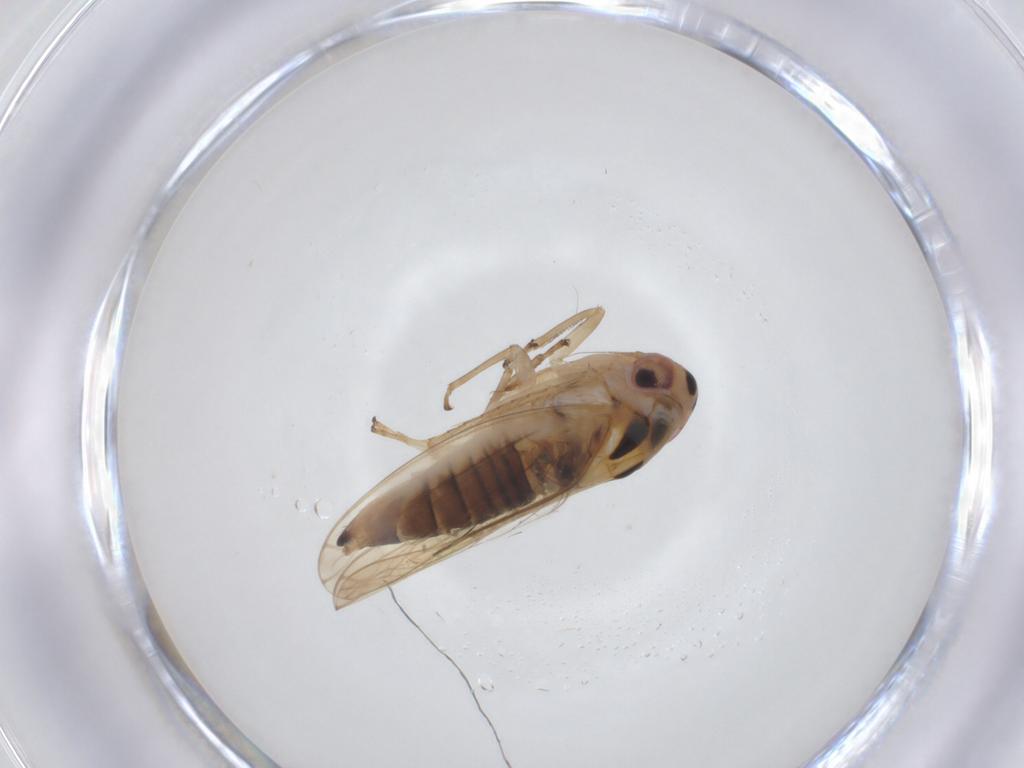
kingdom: Animalia
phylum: Arthropoda
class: Insecta
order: Hemiptera
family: Cicadellidae
